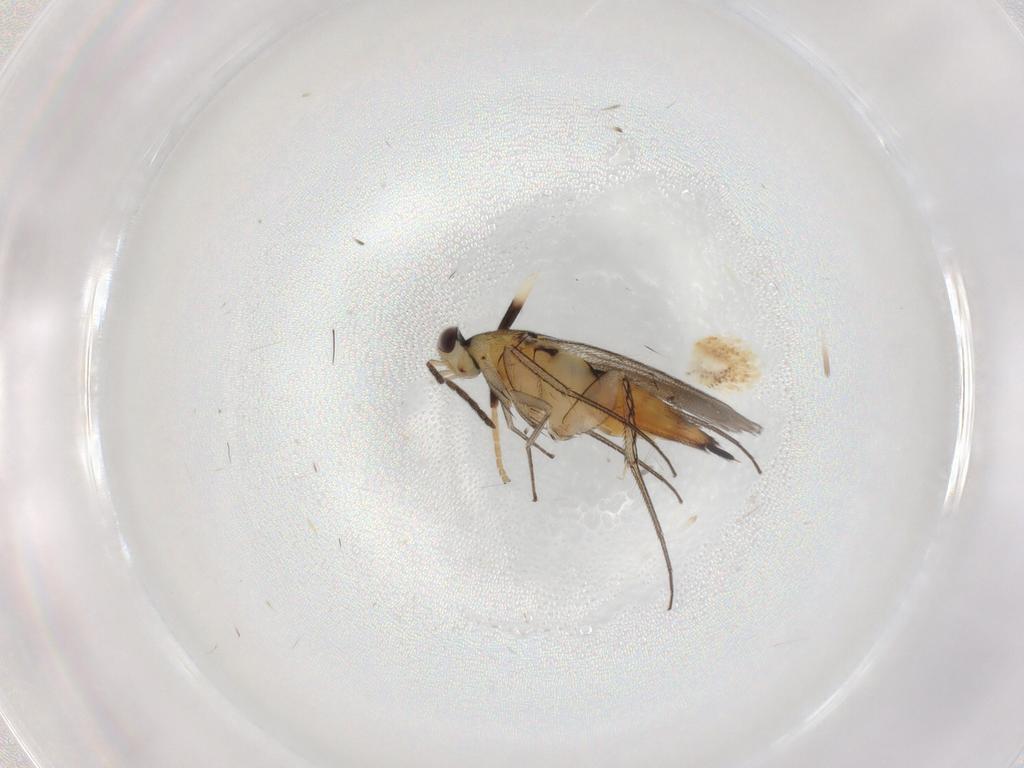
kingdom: Animalia
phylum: Arthropoda
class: Insecta
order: Hymenoptera
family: Eulophidae
